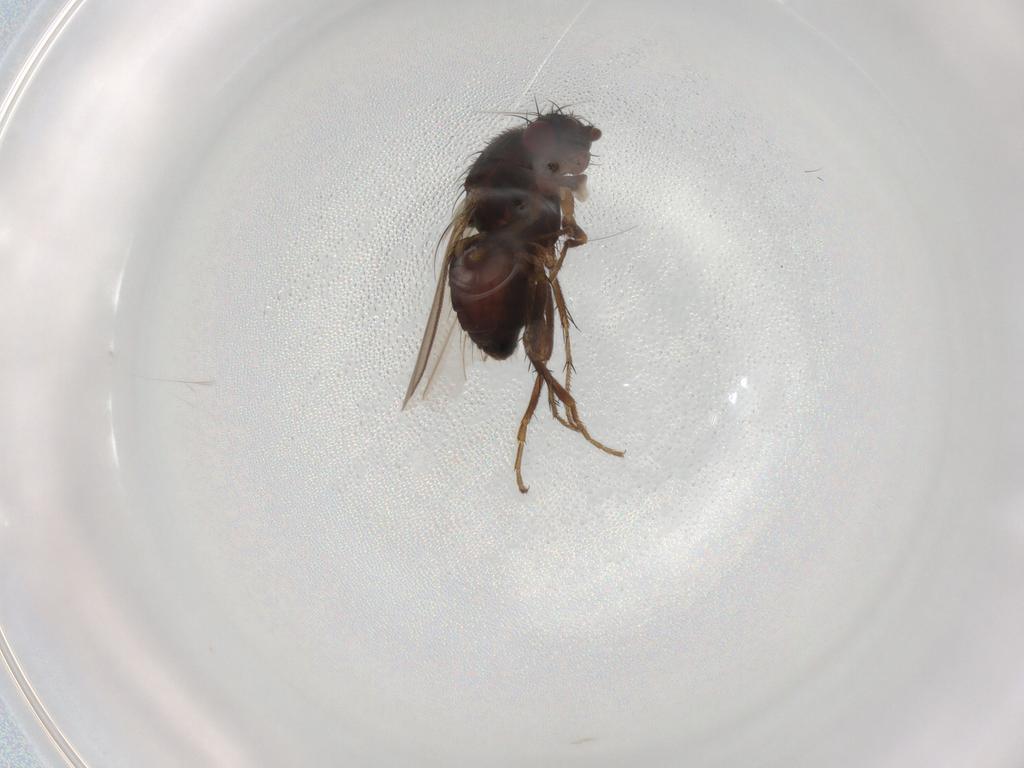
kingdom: Animalia
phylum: Arthropoda
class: Insecta
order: Diptera
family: Sphaeroceridae
